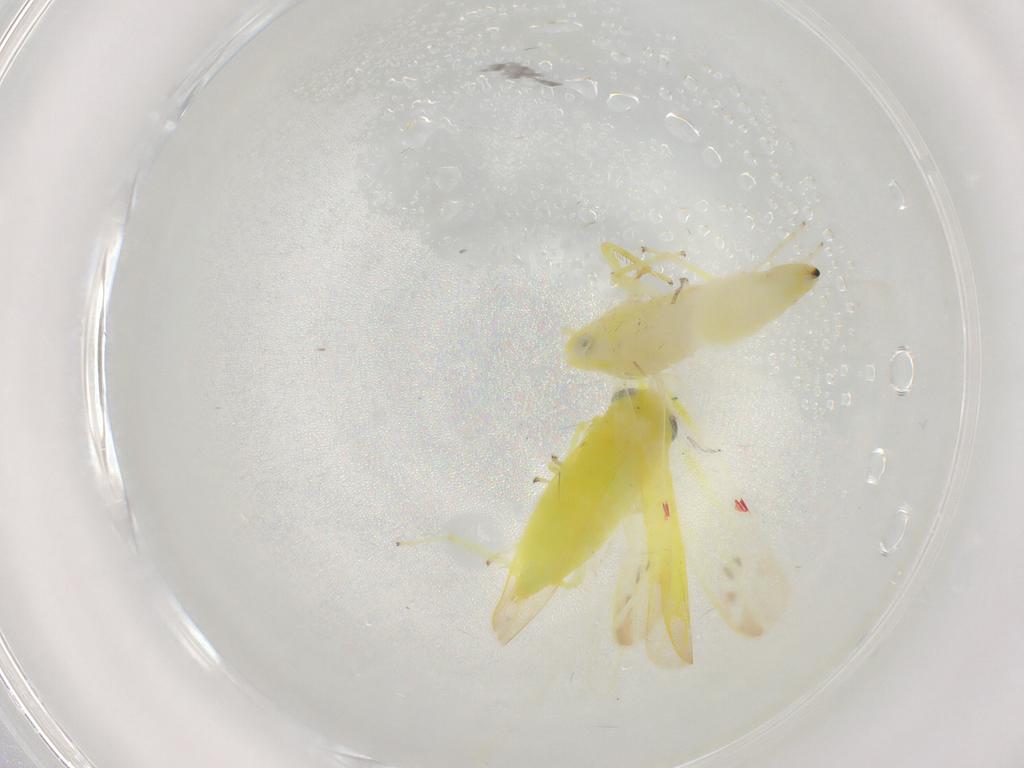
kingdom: Animalia
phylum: Arthropoda
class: Insecta
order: Hemiptera
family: Cicadellidae
